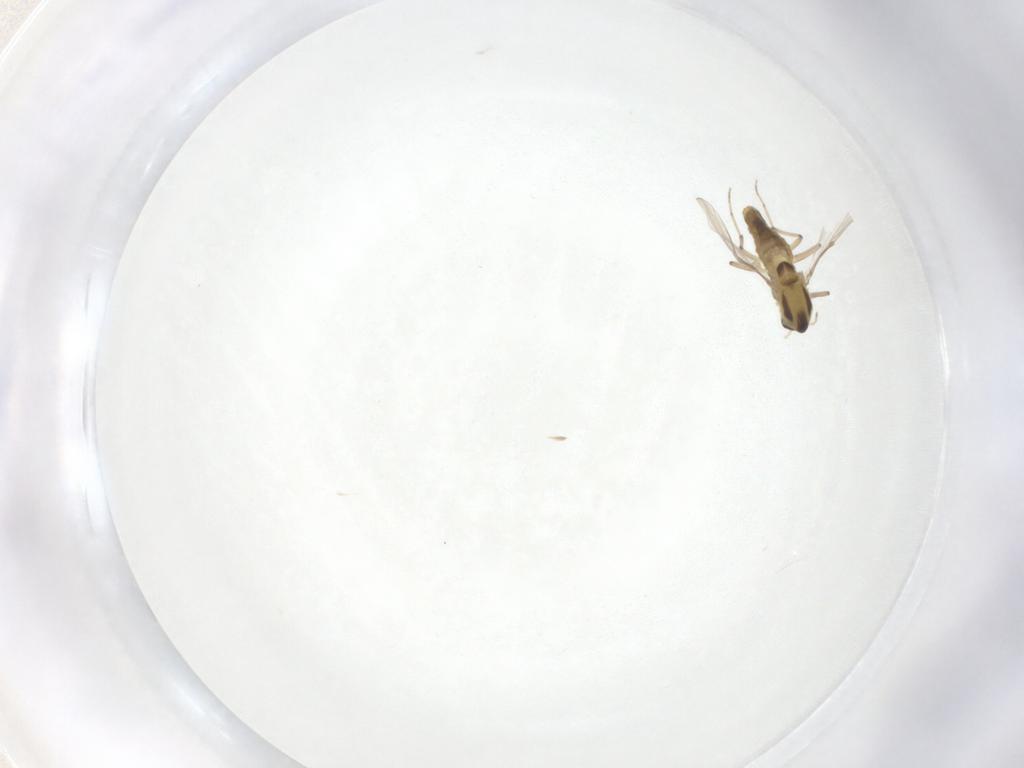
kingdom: Animalia
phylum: Arthropoda
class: Insecta
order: Diptera
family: Chironomidae
